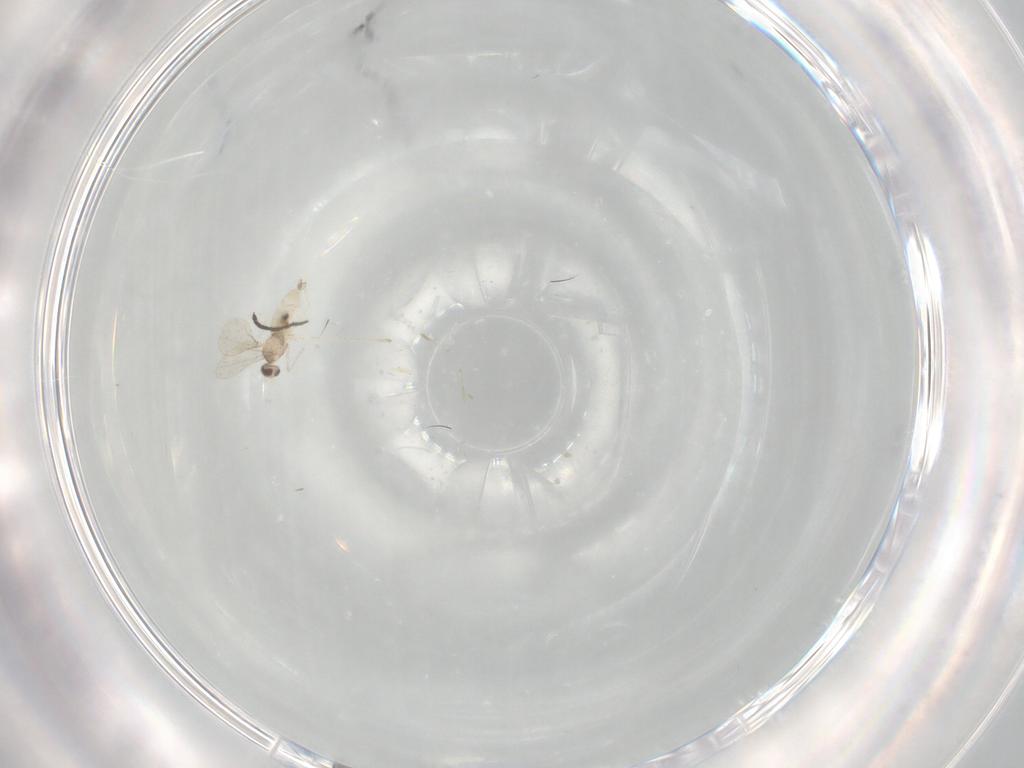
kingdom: Animalia
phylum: Arthropoda
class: Insecta
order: Diptera
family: Cecidomyiidae
